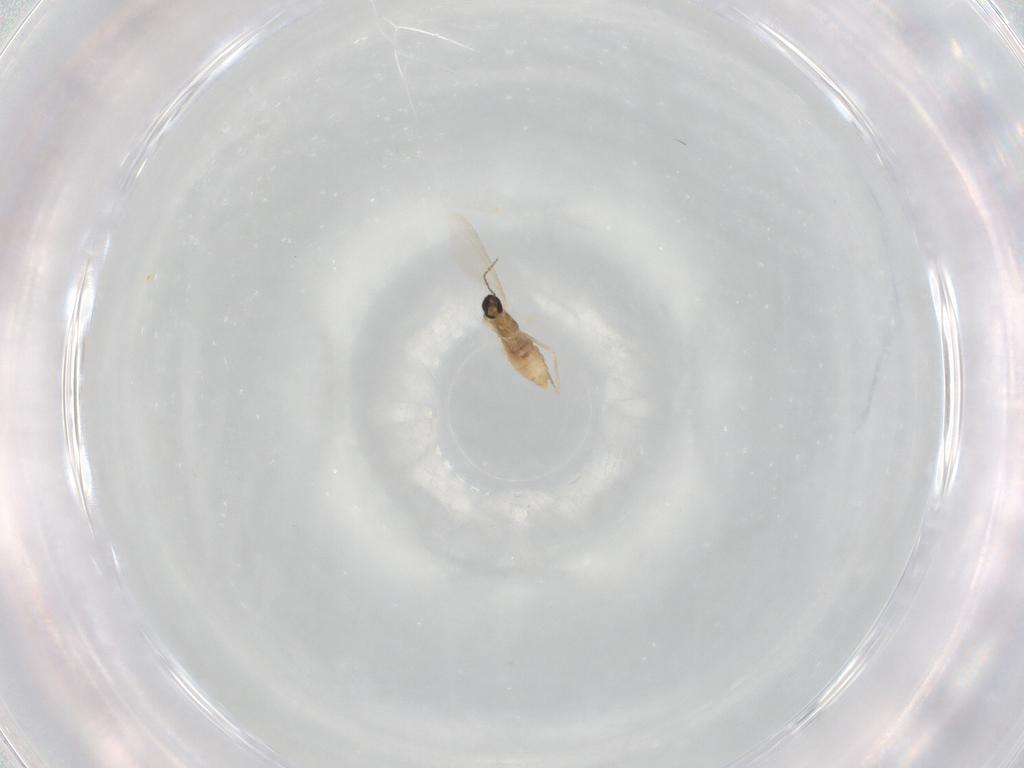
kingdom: Animalia
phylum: Arthropoda
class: Insecta
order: Diptera
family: Cecidomyiidae
